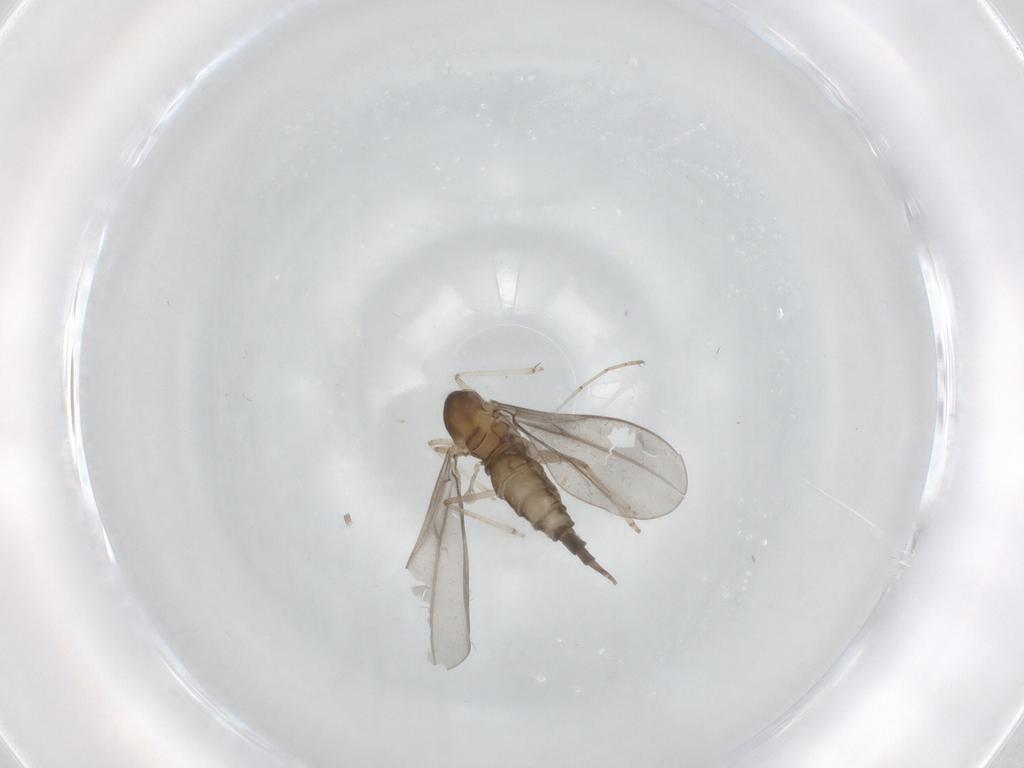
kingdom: Animalia
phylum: Arthropoda
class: Insecta
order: Diptera
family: Cecidomyiidae
